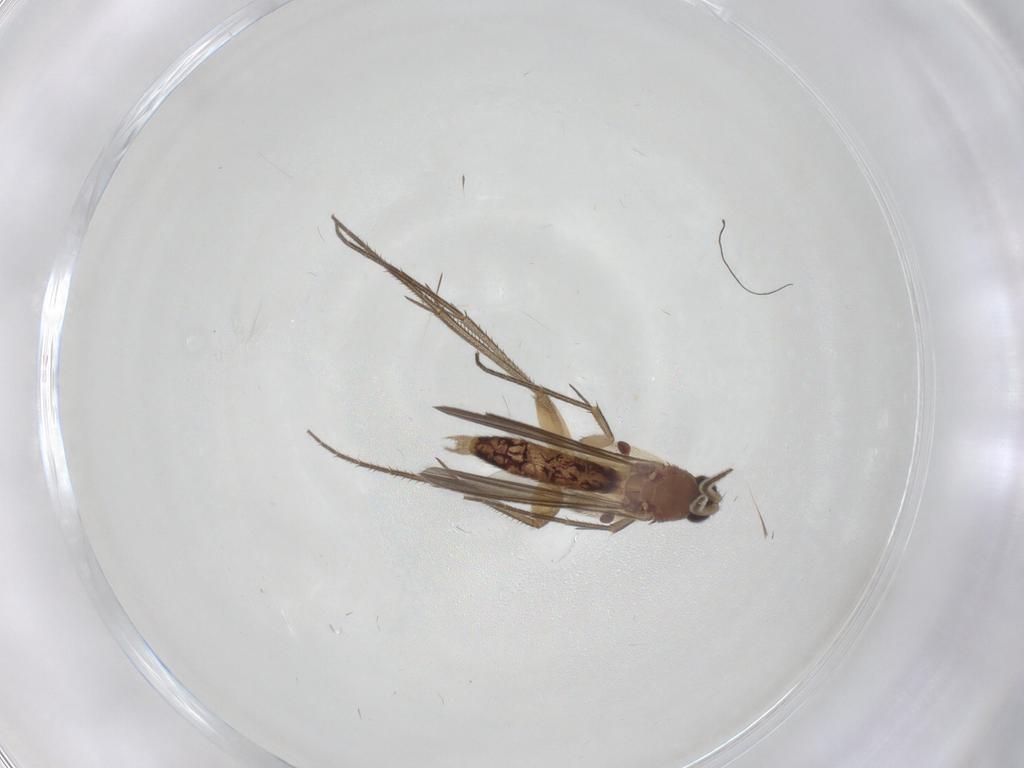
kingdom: Animalia
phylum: Arthropoda
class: Insecta
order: Diptera
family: Mycetophilidae
